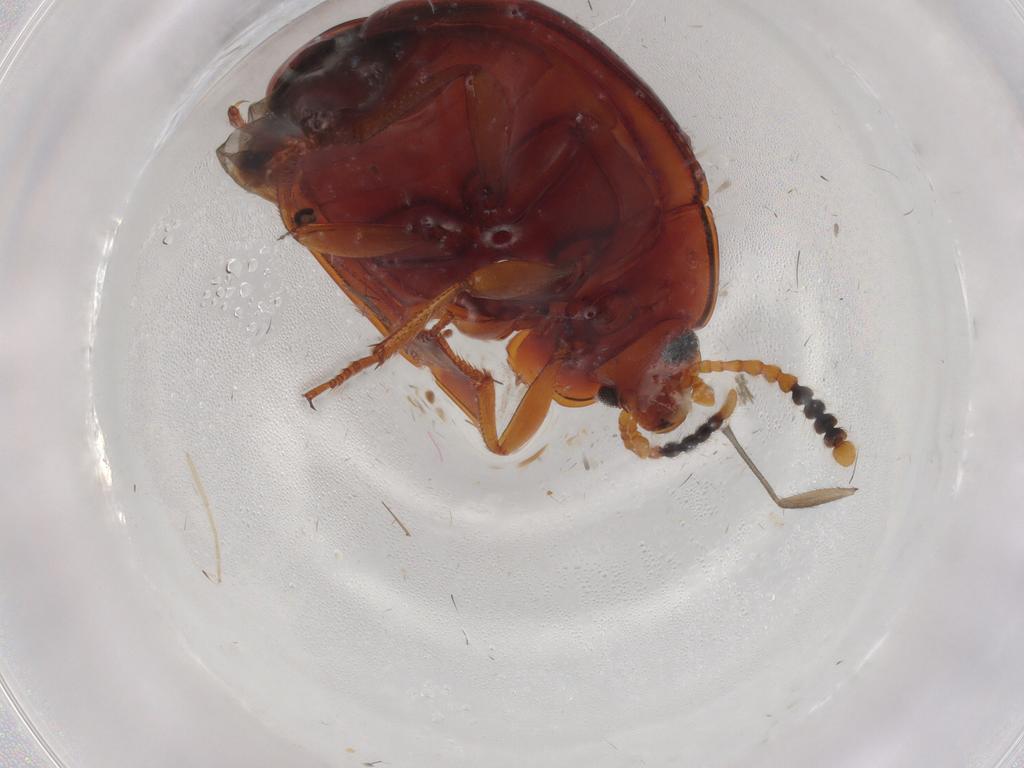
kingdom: Animalia
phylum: Arthropoda
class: Insecta
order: Coleoptera
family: Tenebrionidae
